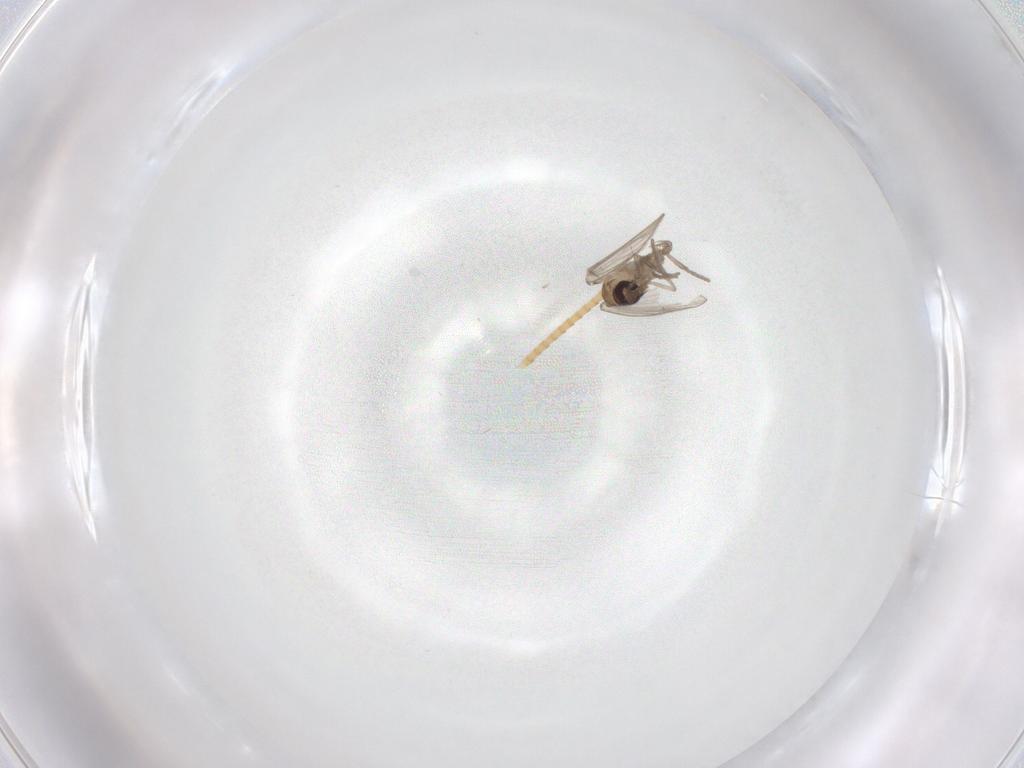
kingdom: Animalia
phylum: Arthropoda
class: Insecta
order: Diptera
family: Psychodidae
